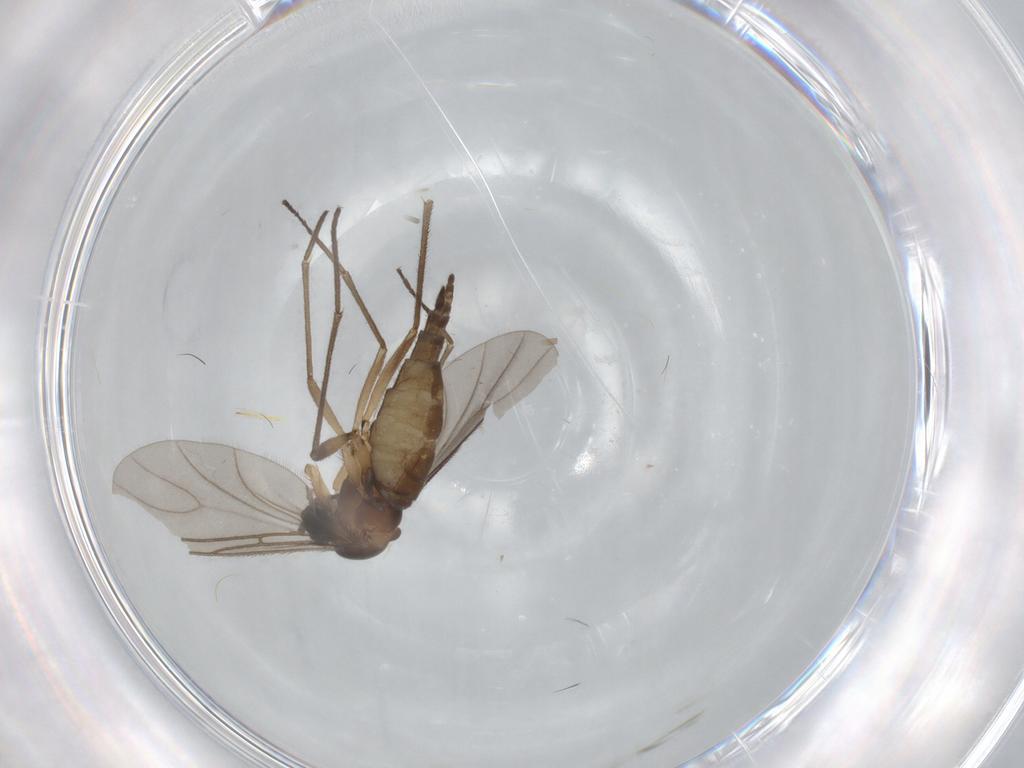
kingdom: Animalia
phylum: Arthropoda
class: Insecta
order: Diptera
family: Sciaridae
